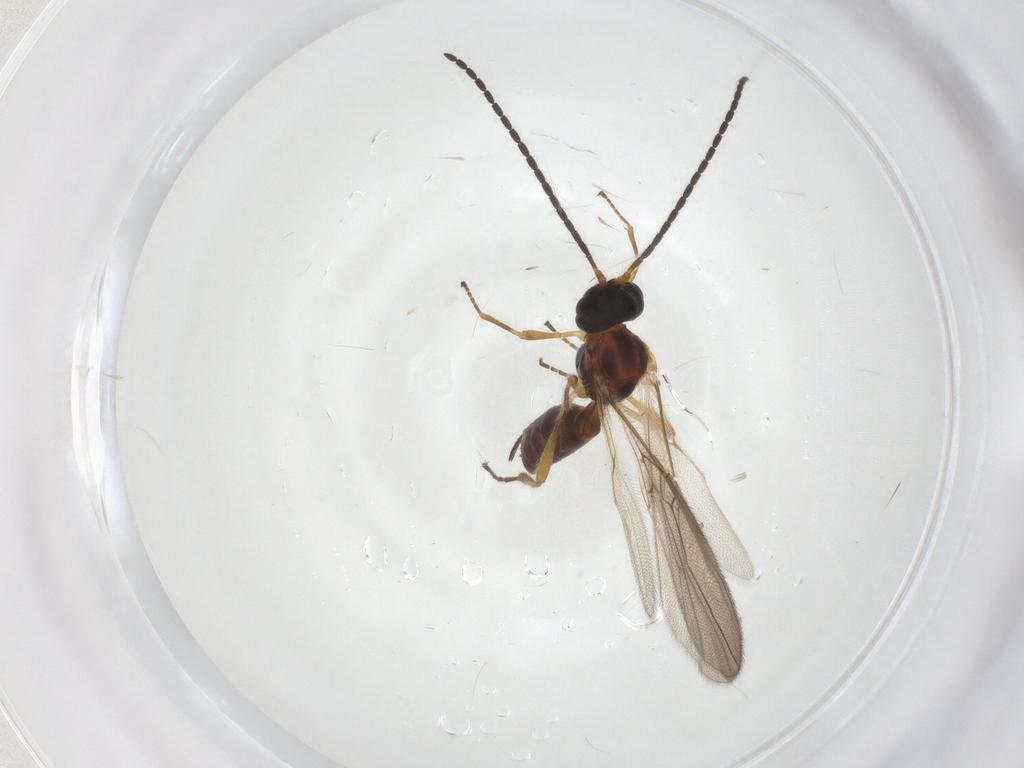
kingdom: Animalia
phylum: Arthropoda
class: Insecta
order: Hymenoptera
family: Braconidae
